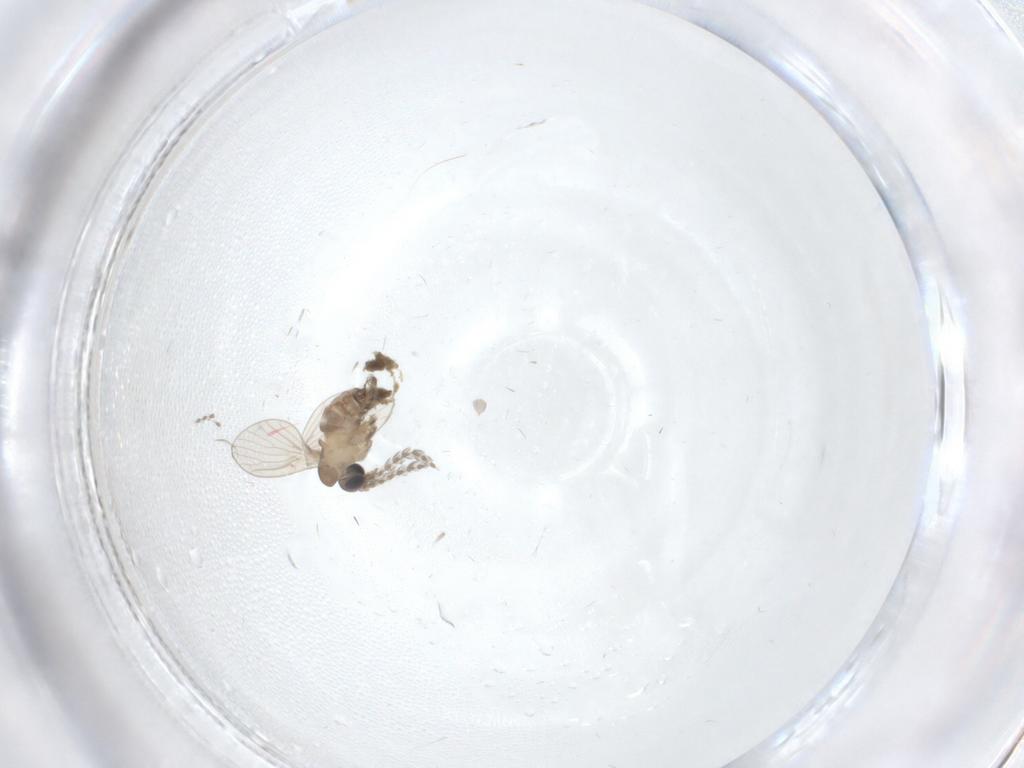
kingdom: Animalia
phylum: Arthropoda
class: Insecta
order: Diptera
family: Chironomidae
